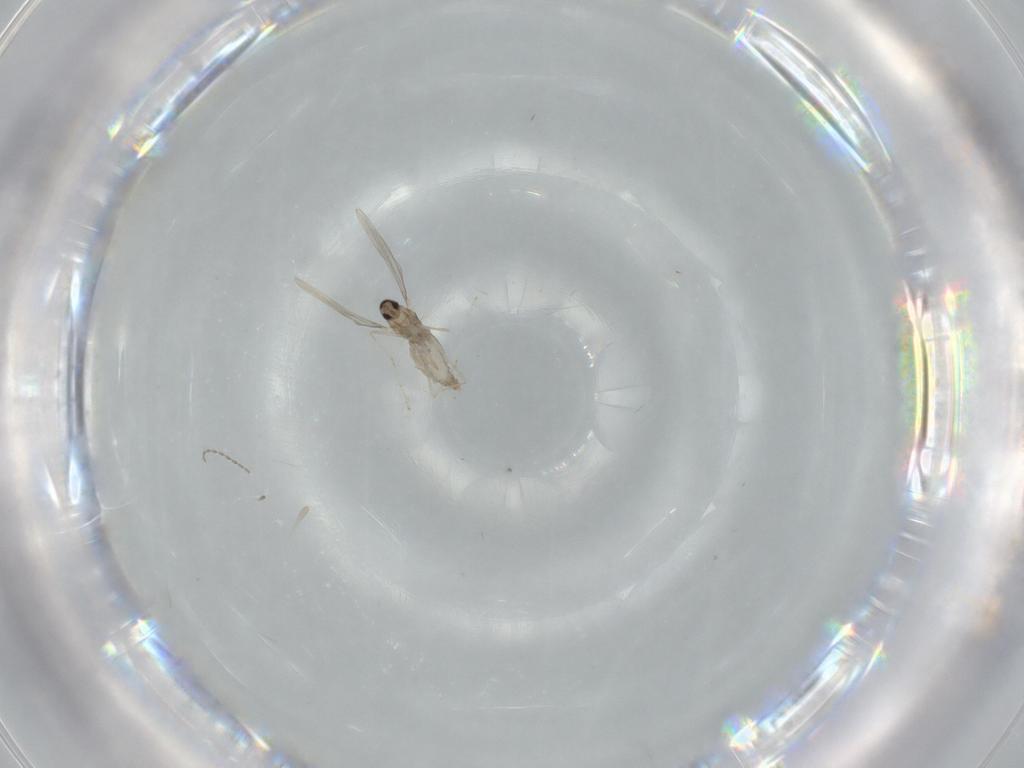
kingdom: Animalia
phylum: Arthropoda
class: Insecta
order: Diptera
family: Cecidomyiidae
